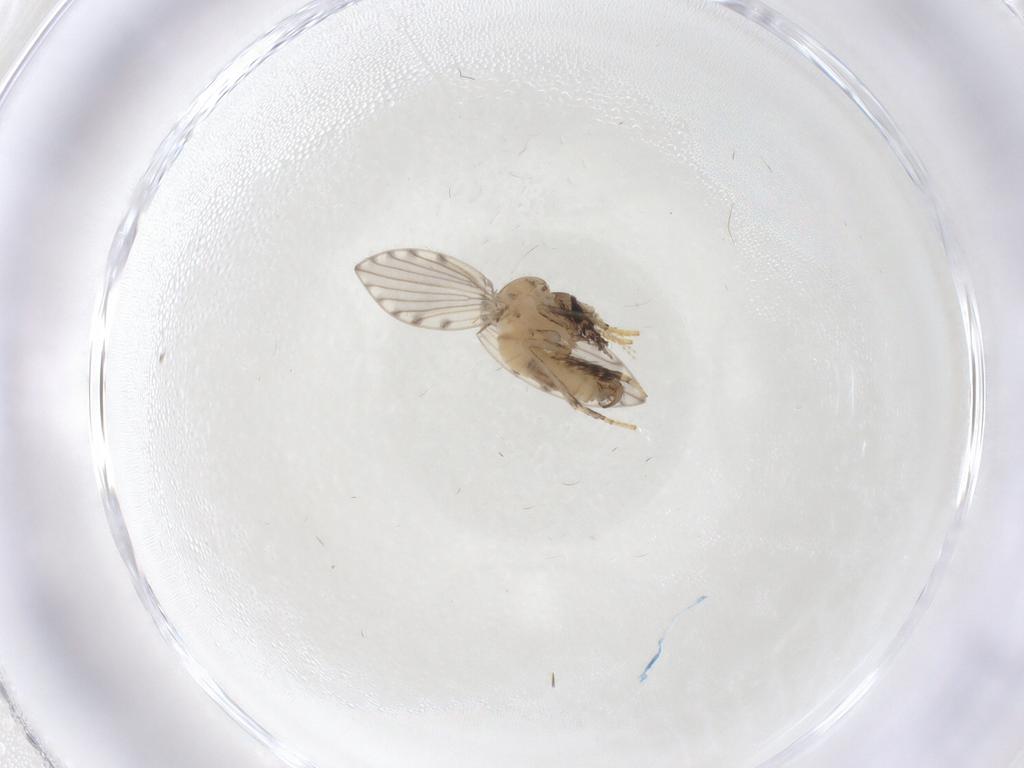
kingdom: Animalia
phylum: Arthropoda
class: Insecta
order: Diptera
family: Psychodidae
